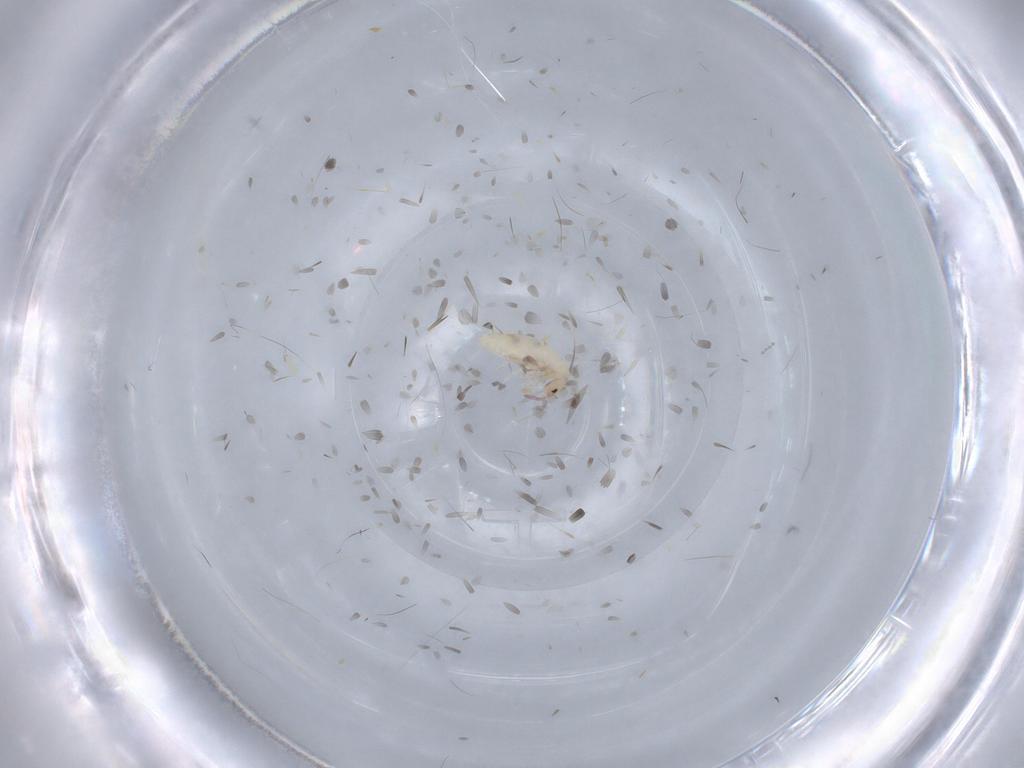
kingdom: Animalia
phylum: Arthropoda
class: Collembola
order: Entomobryomorpha
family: Entomobryidae
